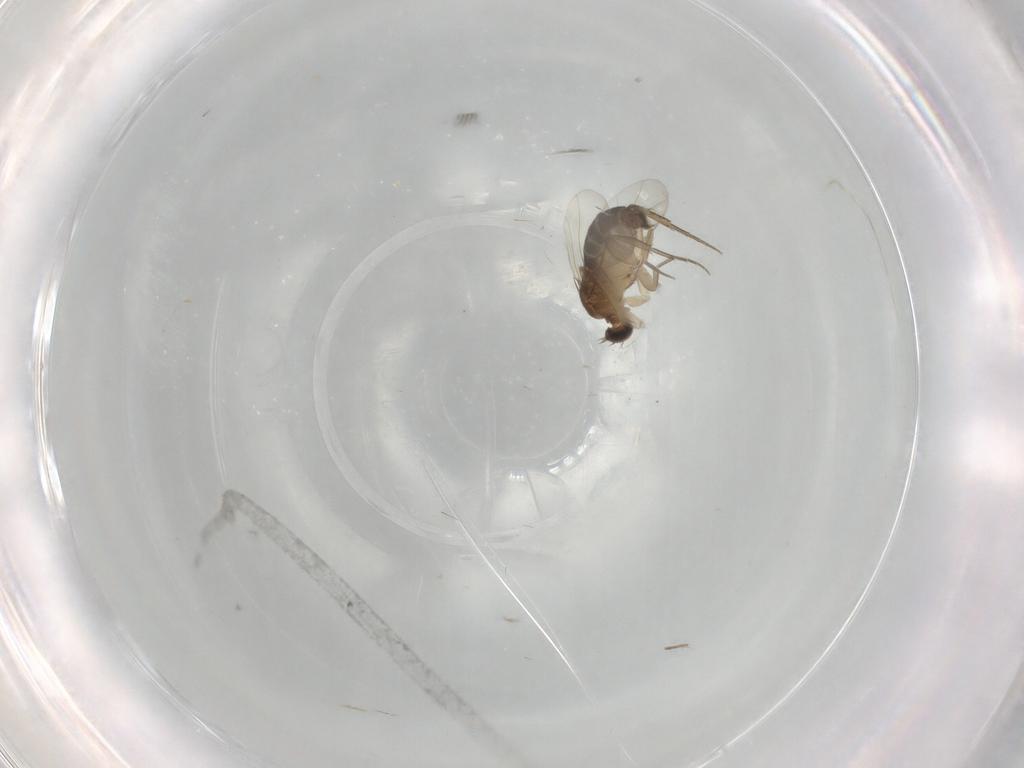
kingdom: Animalia
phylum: Arthropoda
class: Insecta
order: Diptera
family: Phoridae
